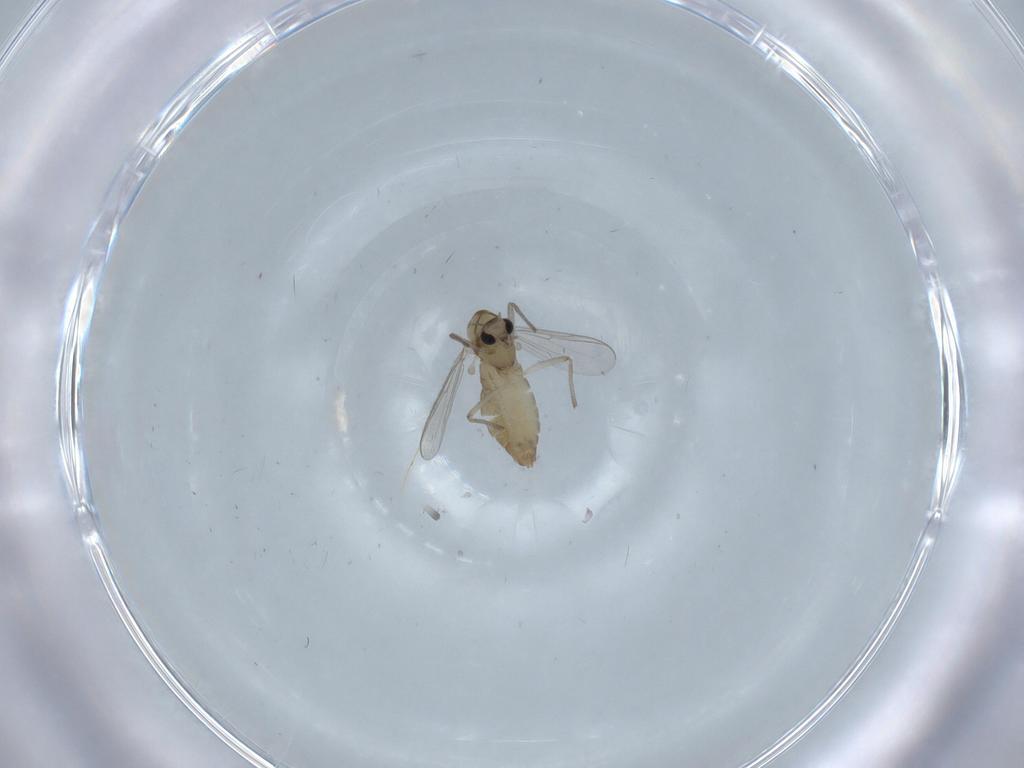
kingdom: Animalia
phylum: Arthropoda
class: Insecta
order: Diptera
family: Chironomidae
